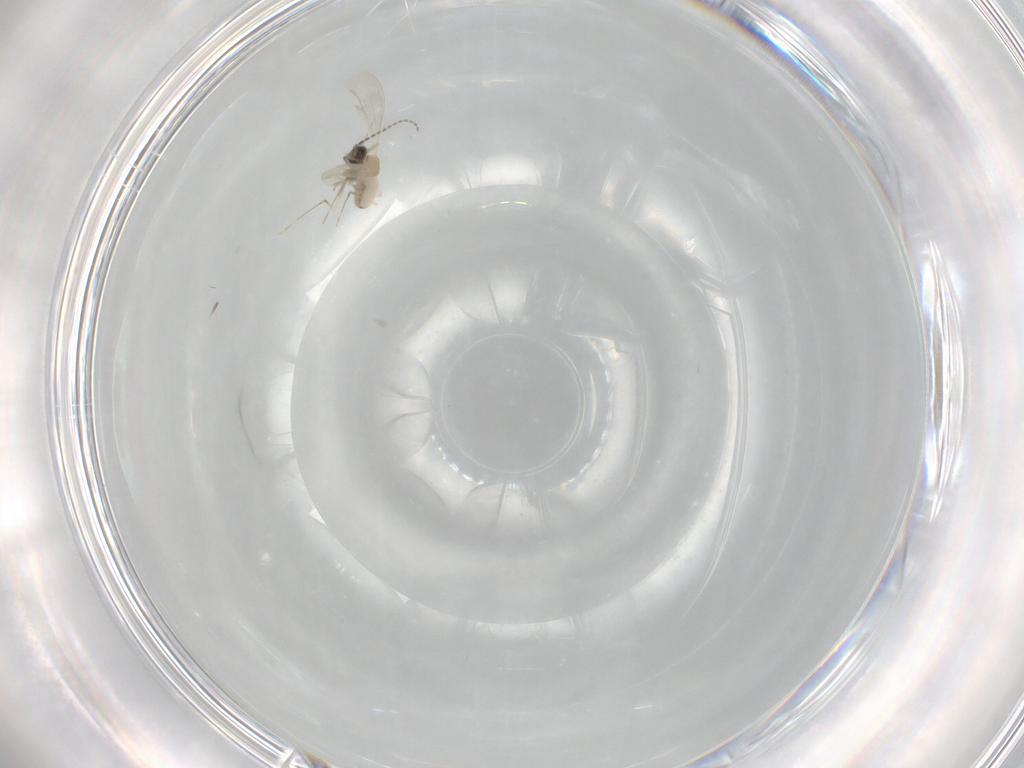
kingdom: Animalia
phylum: Arthropoda
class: Insecta
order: Diptera
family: Cecidomyiidae
